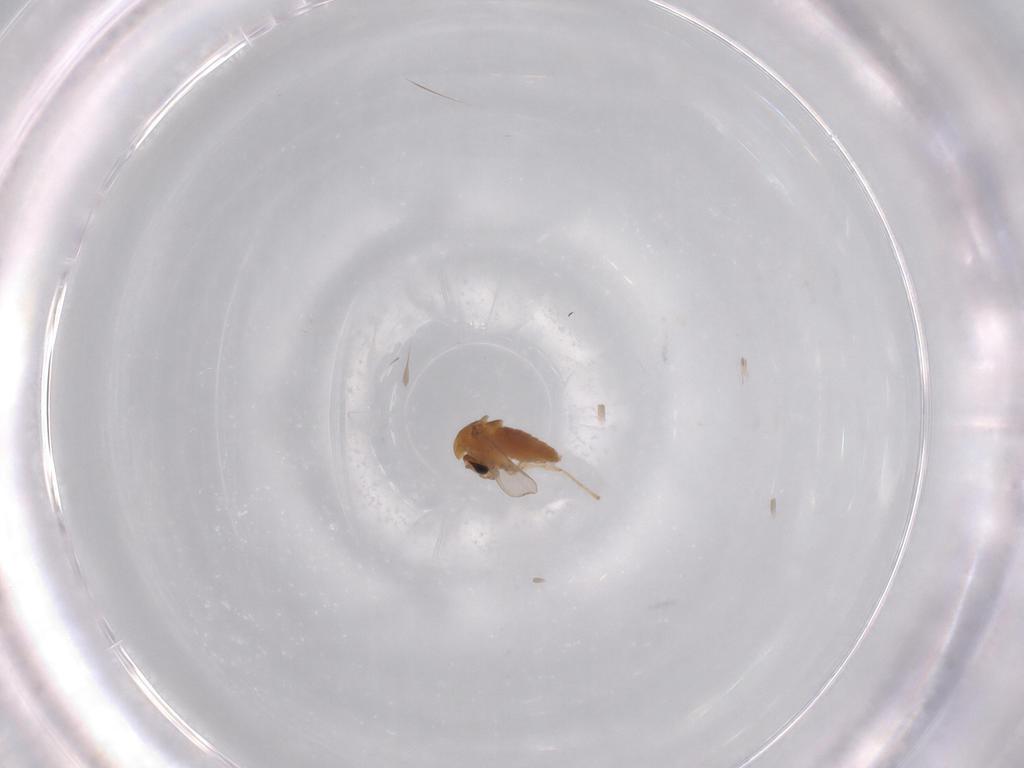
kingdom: Animalia
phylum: Arthropoda
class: Insecta
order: Diptera
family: Chironomidae
